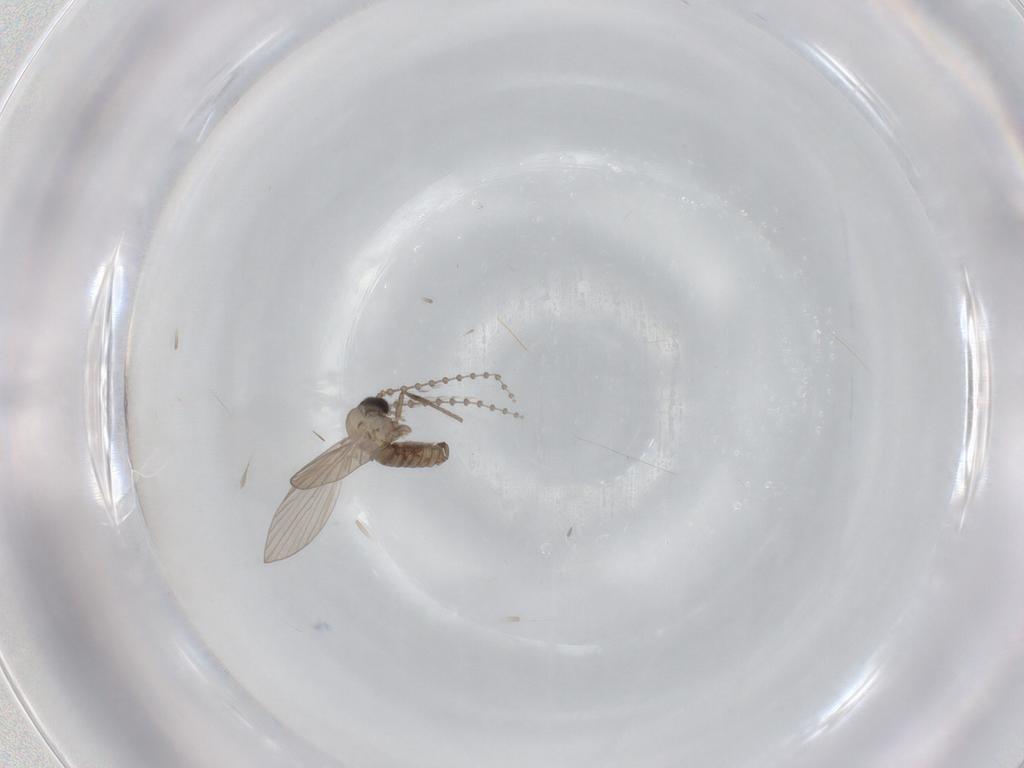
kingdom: Animalia
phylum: Arthropoda
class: Insecta
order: Diptera
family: Psychodidae
